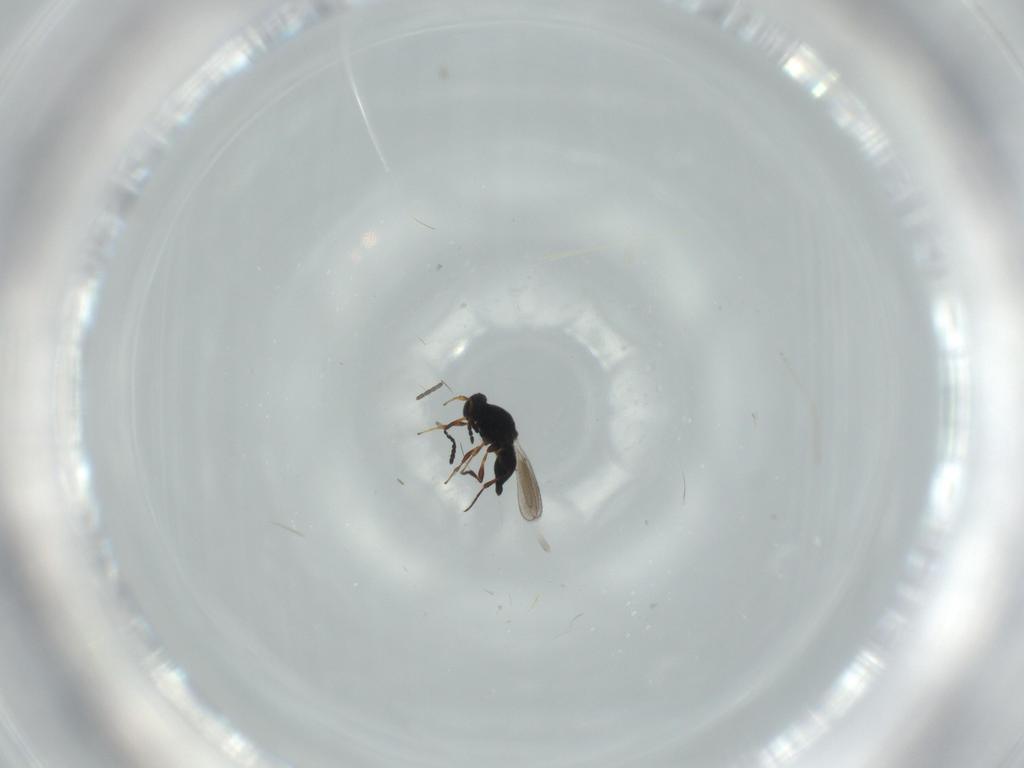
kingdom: Animalia
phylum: Arthropoda
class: Insecta
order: Hymenoptera
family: Platygastridae
